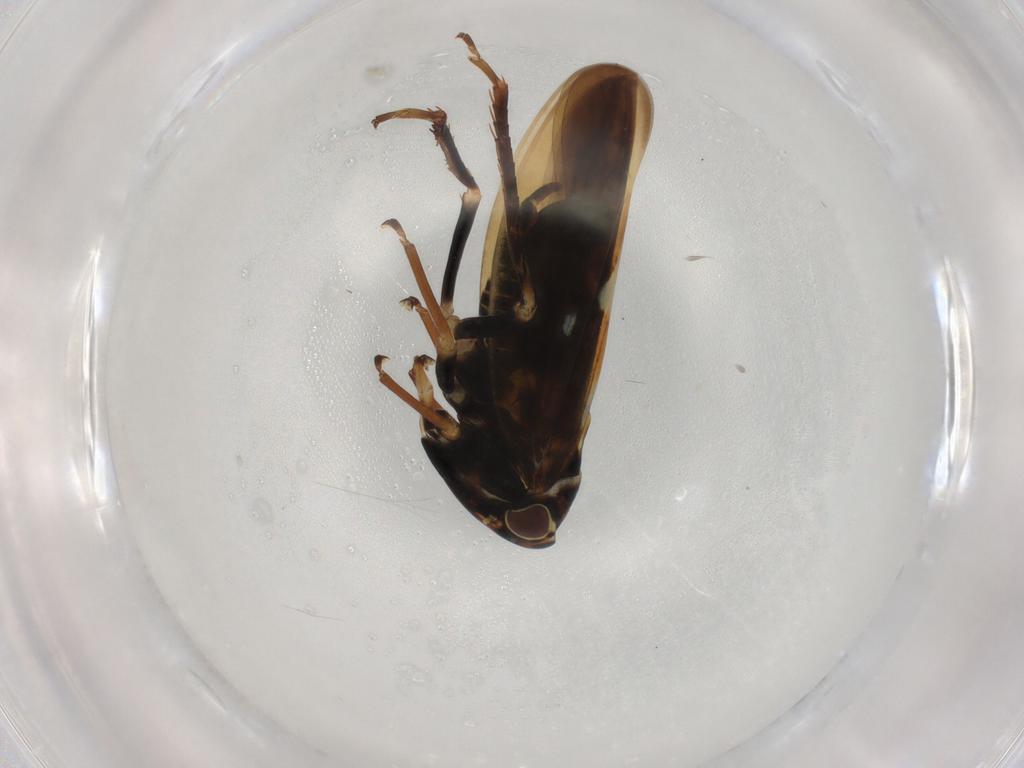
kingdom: Animalia
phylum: Arthropoda
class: Insecta
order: Hemiptera
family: Cicadellidae
